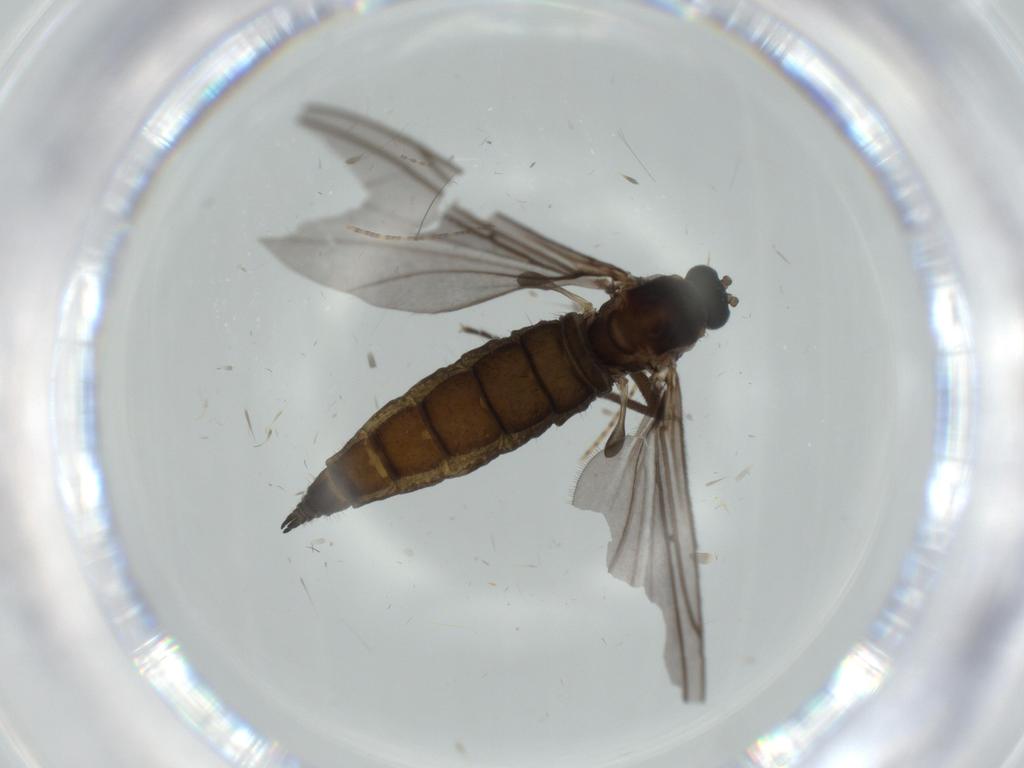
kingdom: Animalia
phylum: Arthropoda
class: Insecta
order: Diptera
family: Sciaridae
